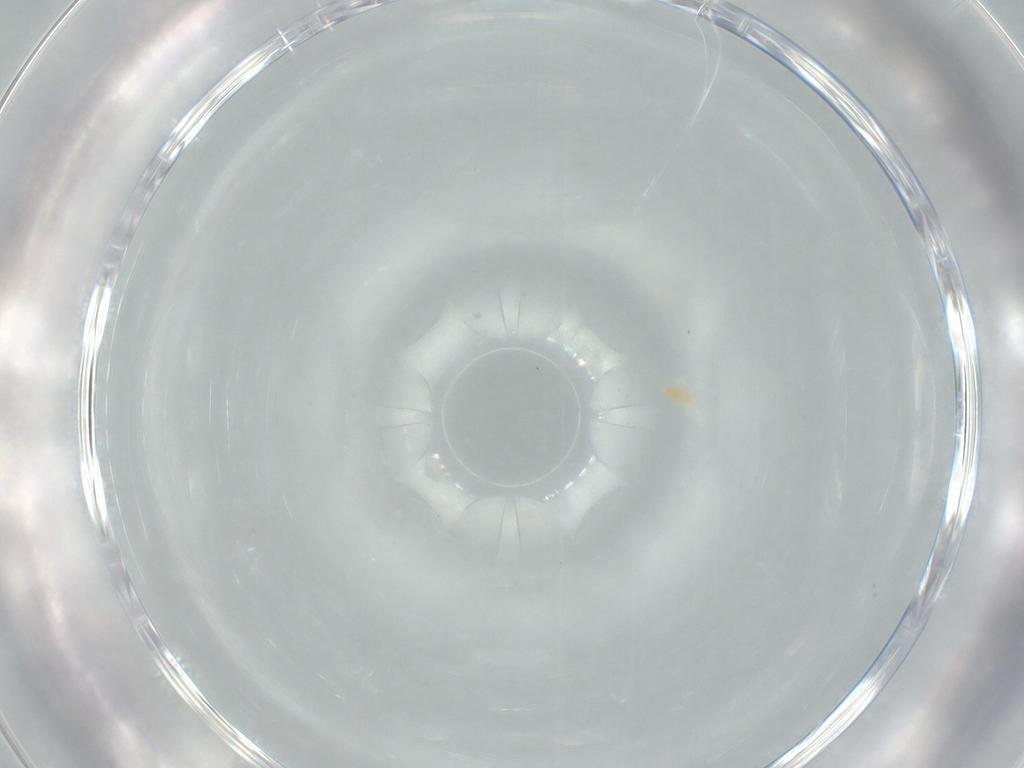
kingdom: Animalia
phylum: Arthropoda
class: Arachnida
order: Trombidiformes
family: Eupodidae
